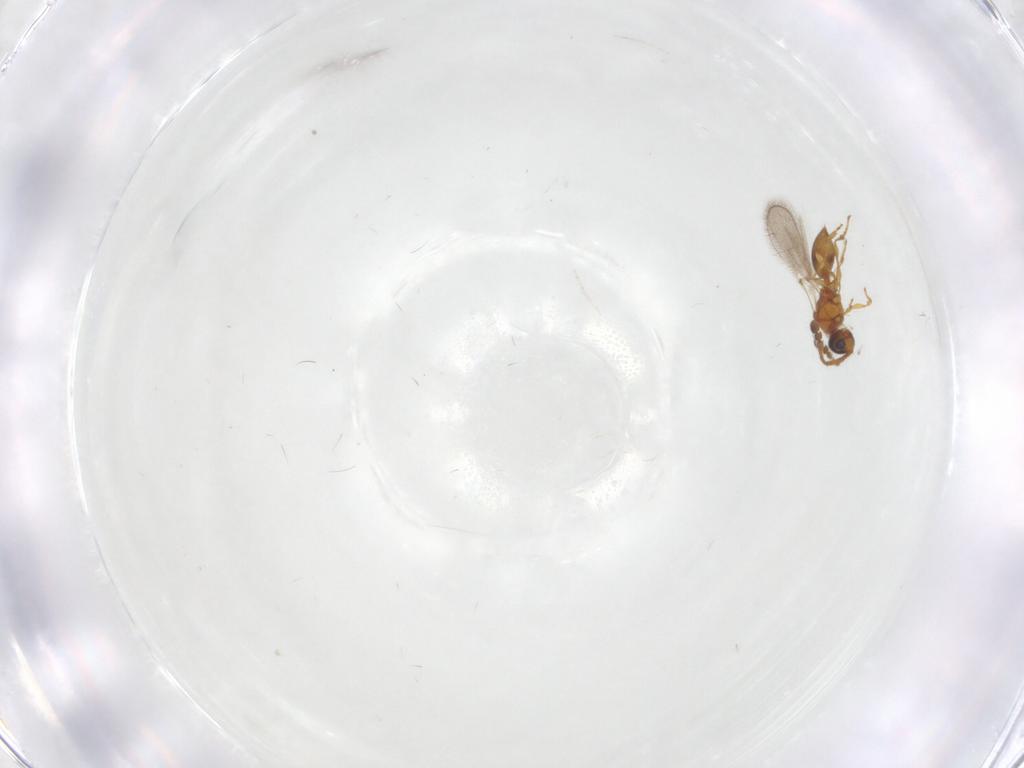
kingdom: Animalia
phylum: Arthropoda
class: Insecta
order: Hymenoptera
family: Diapriidae
